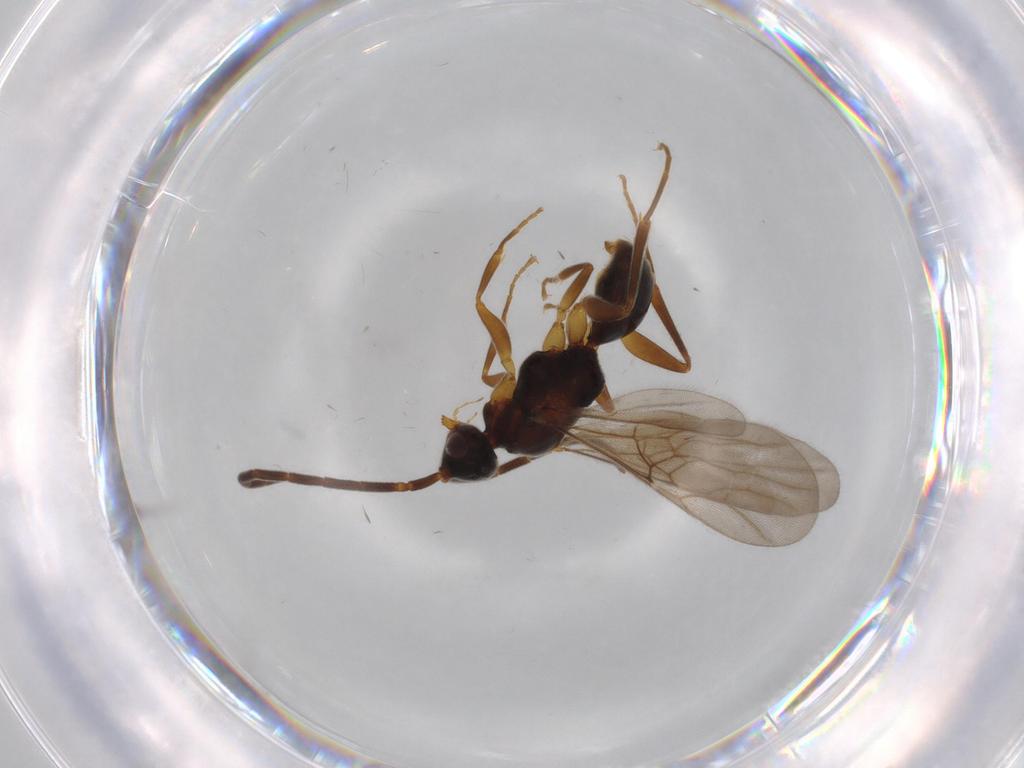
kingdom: Animalia
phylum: Arthropoda
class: Insecta
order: Hymenoptera
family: Embolemidae
